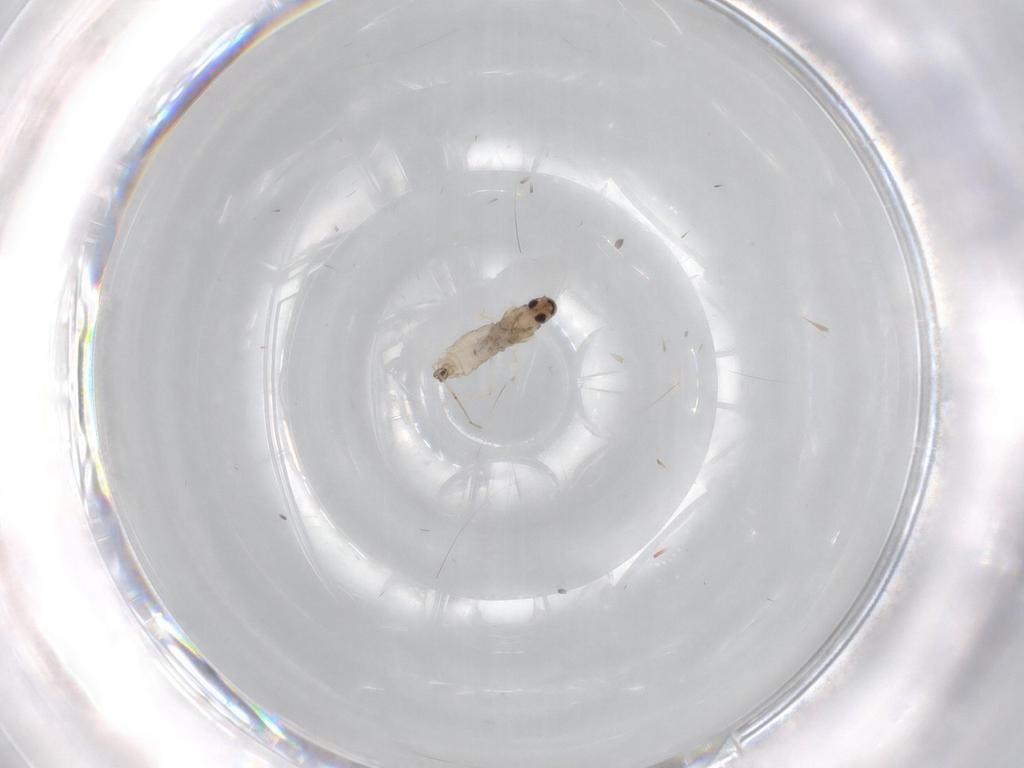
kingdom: Animalia
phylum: Arthropoda
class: Insecta
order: Diptera
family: Cecidomyiidae
